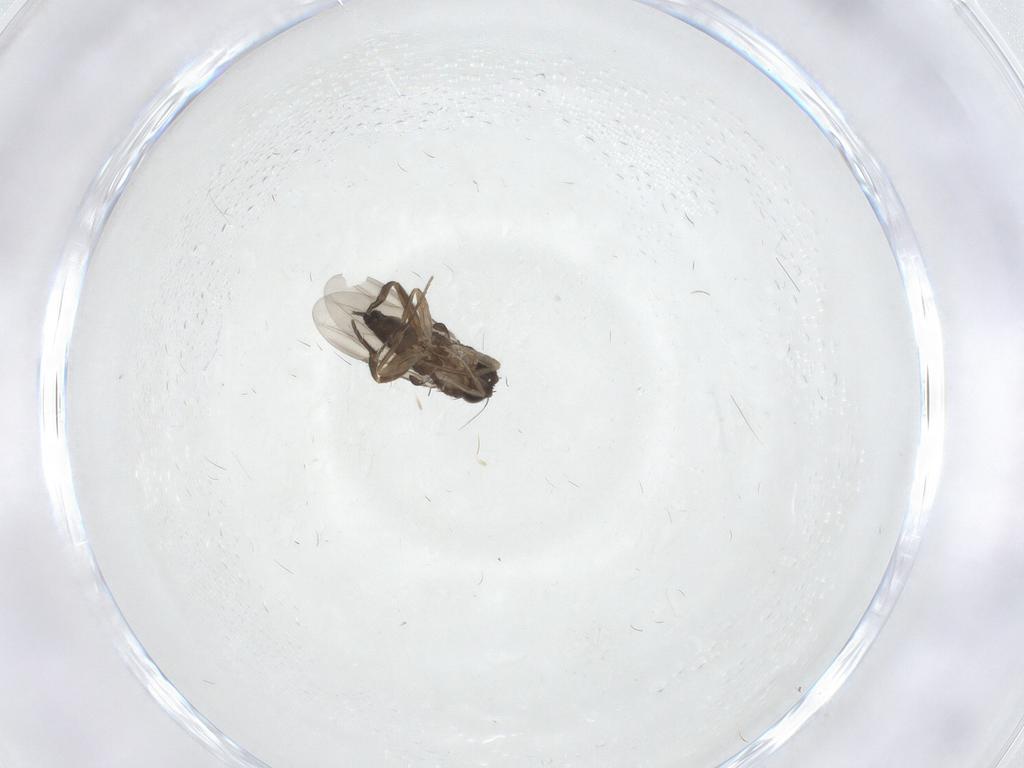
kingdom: Animalia
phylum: Arthropoda
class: Insecta
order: Diptera
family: Phoridae
